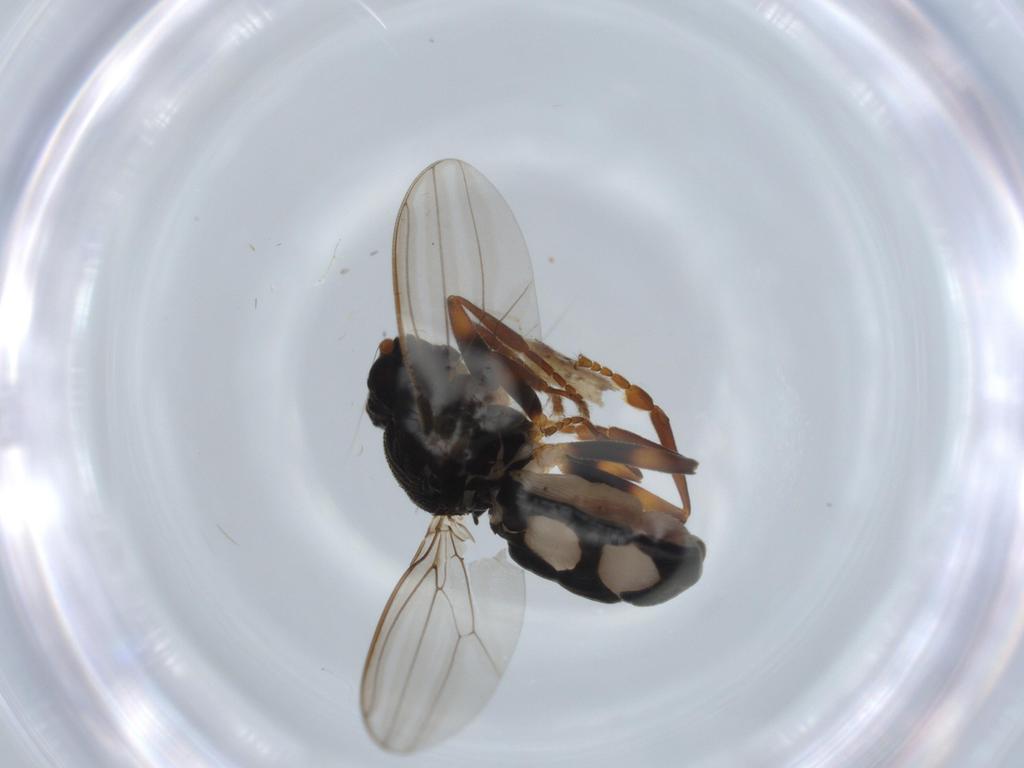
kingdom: Animalia
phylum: Arthropoda
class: Insecta
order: Diptera
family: Sphaeroceridae
